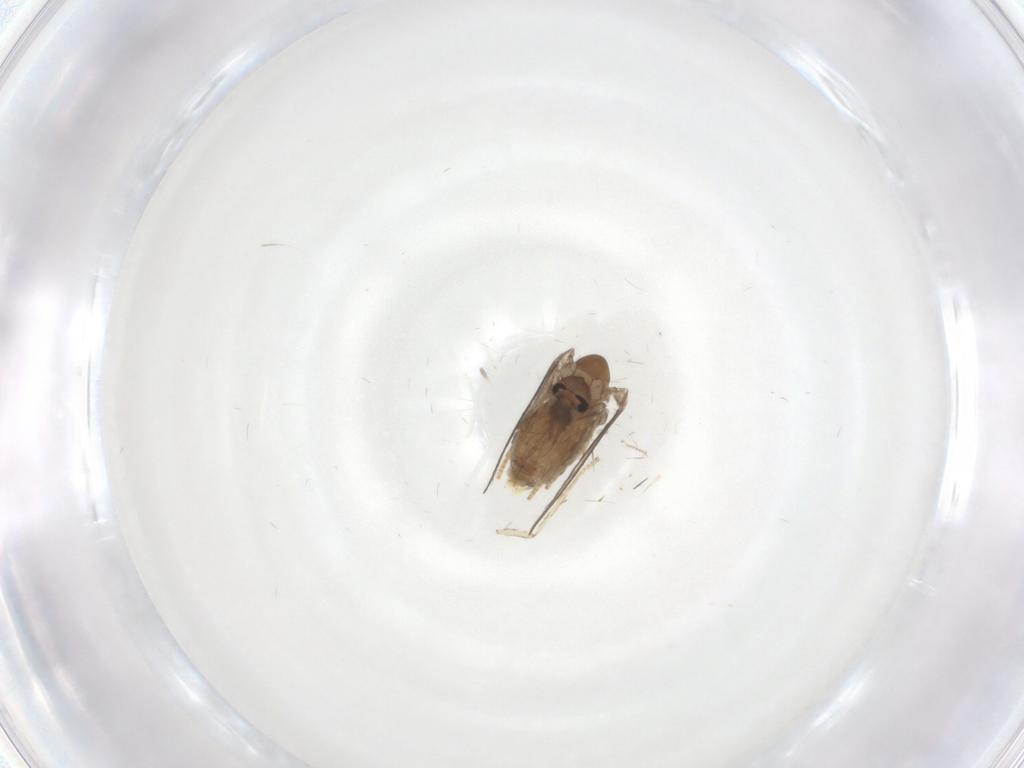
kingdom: Animalia
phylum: Arthropoda
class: Insecta
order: Diptera
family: Psychodidae
